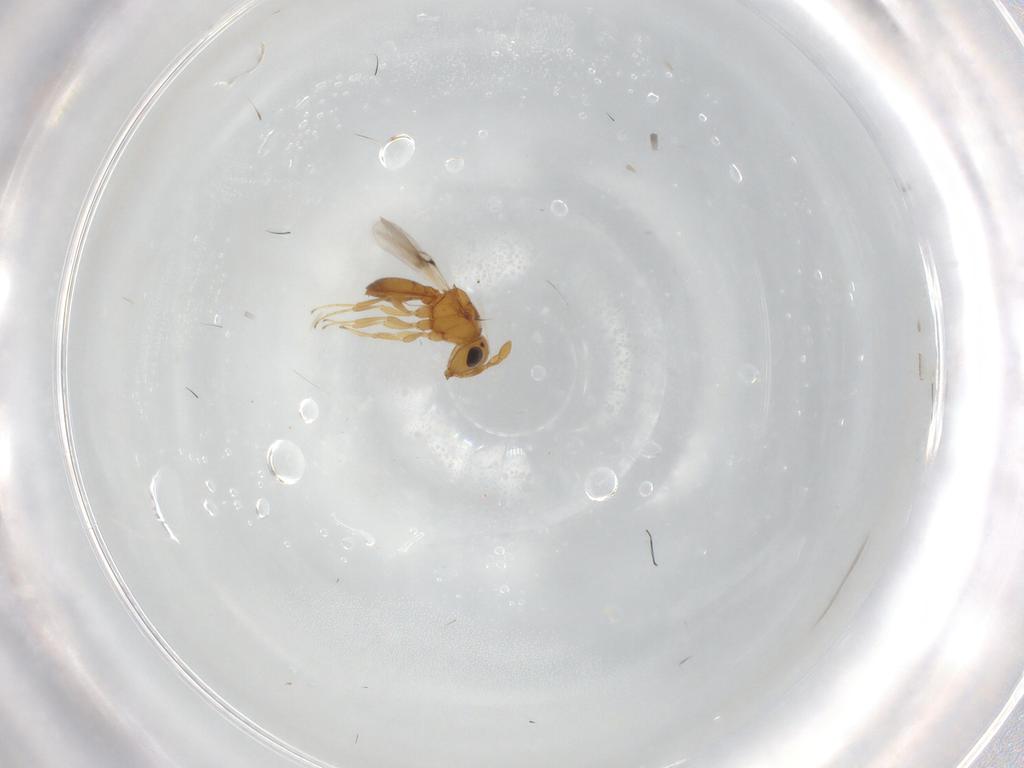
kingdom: Animalia
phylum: Arthropoda
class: Insecta
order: Hymenoptera
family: Scelionidae
